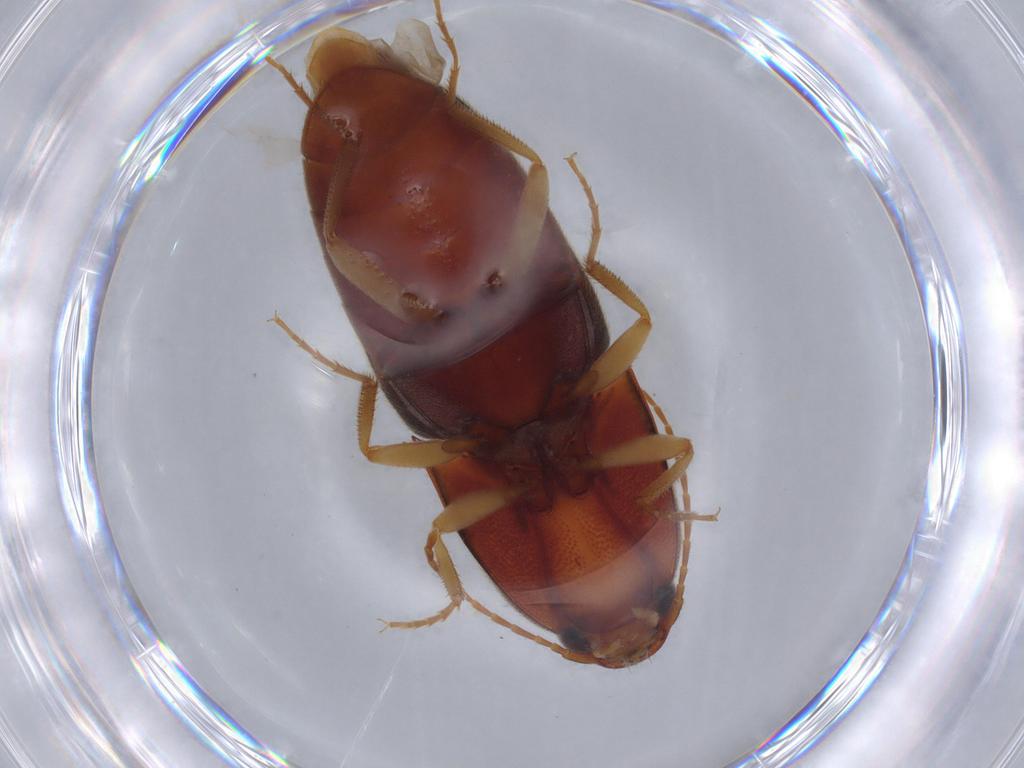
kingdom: Animalia
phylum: Arthropoda
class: Insecta
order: Coleoptera
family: Elateridae
